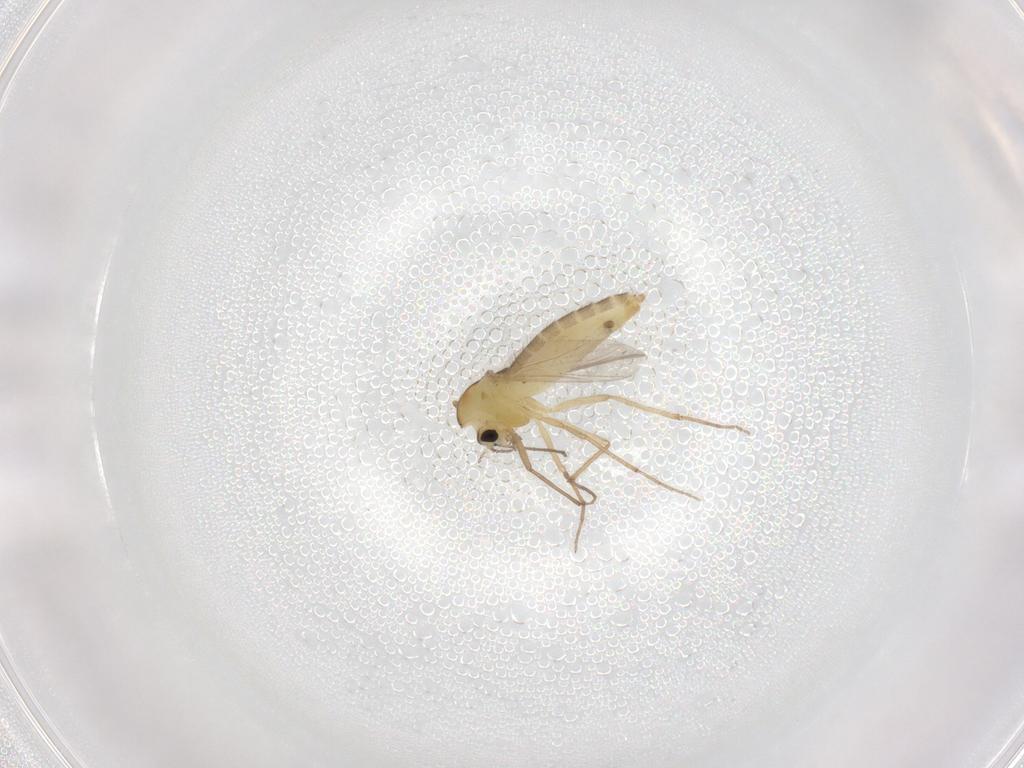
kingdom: Animalia
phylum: Arthropoda
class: Insecta
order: Diptera
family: Chironomidae
